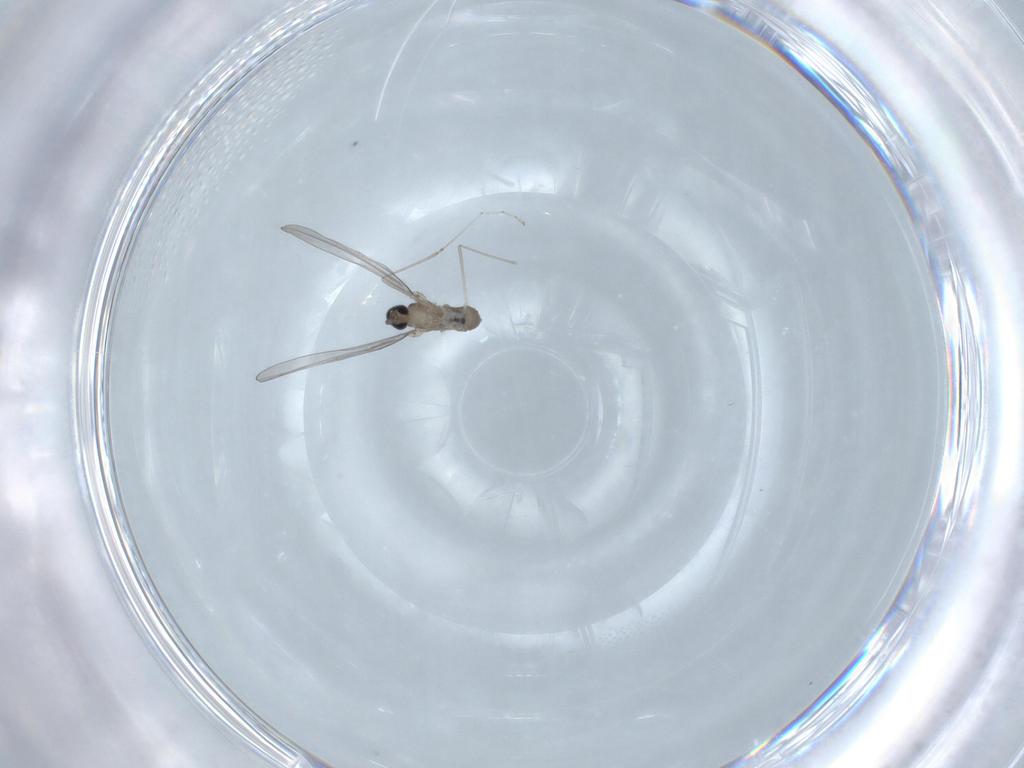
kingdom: Animalia
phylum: Arthropoda
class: Insecta
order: Diptera
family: Cecidomyiidae
